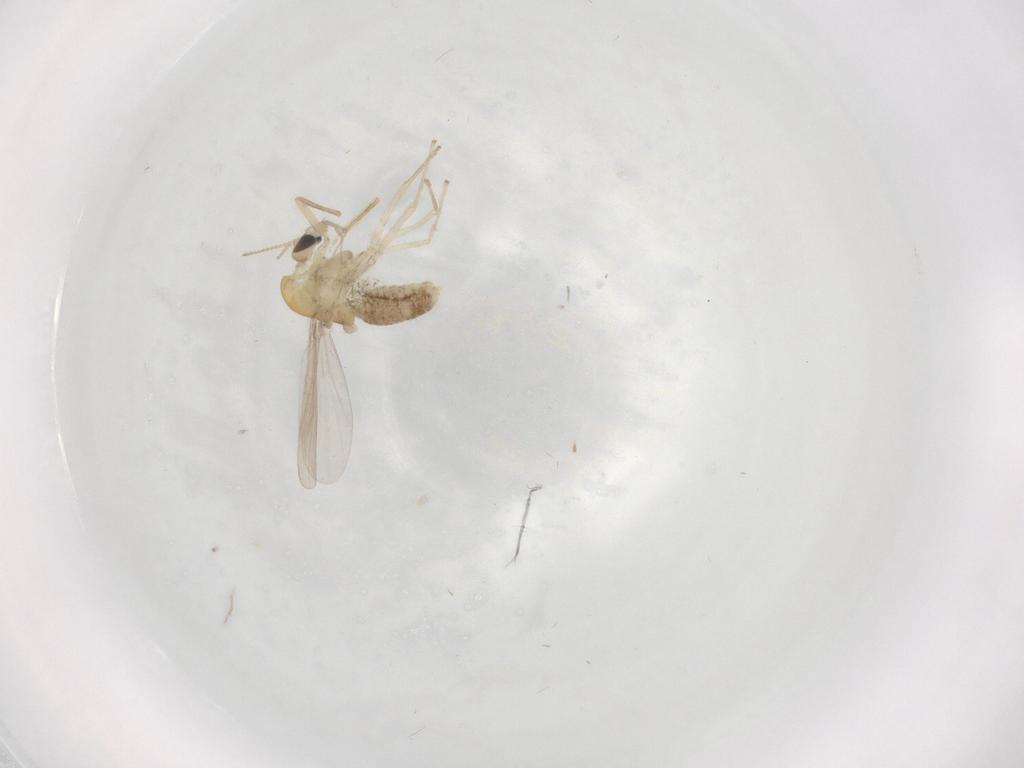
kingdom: Animalia
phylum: Arthropoda
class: Insecta
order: Diptera
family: Chironomidae
